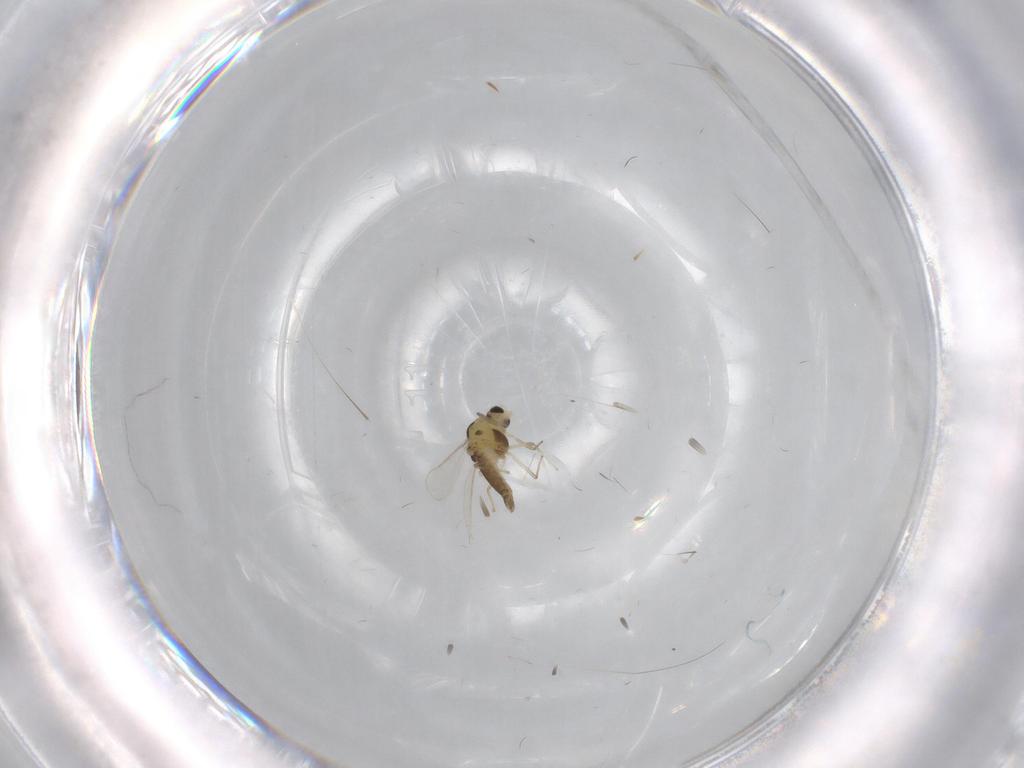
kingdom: Animalia
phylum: Arthropoda
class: Insecta
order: Diptera
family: Chironomidae
